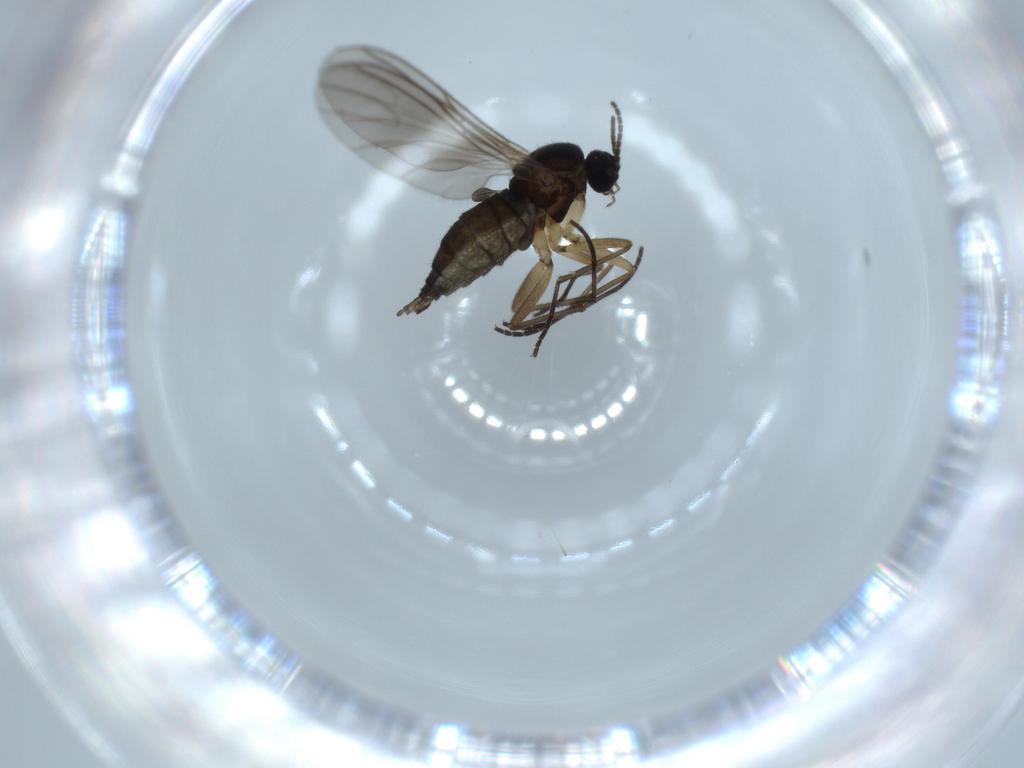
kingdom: Animalia
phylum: Arthropoda
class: Insecta
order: Diptera
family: Sciaridae
